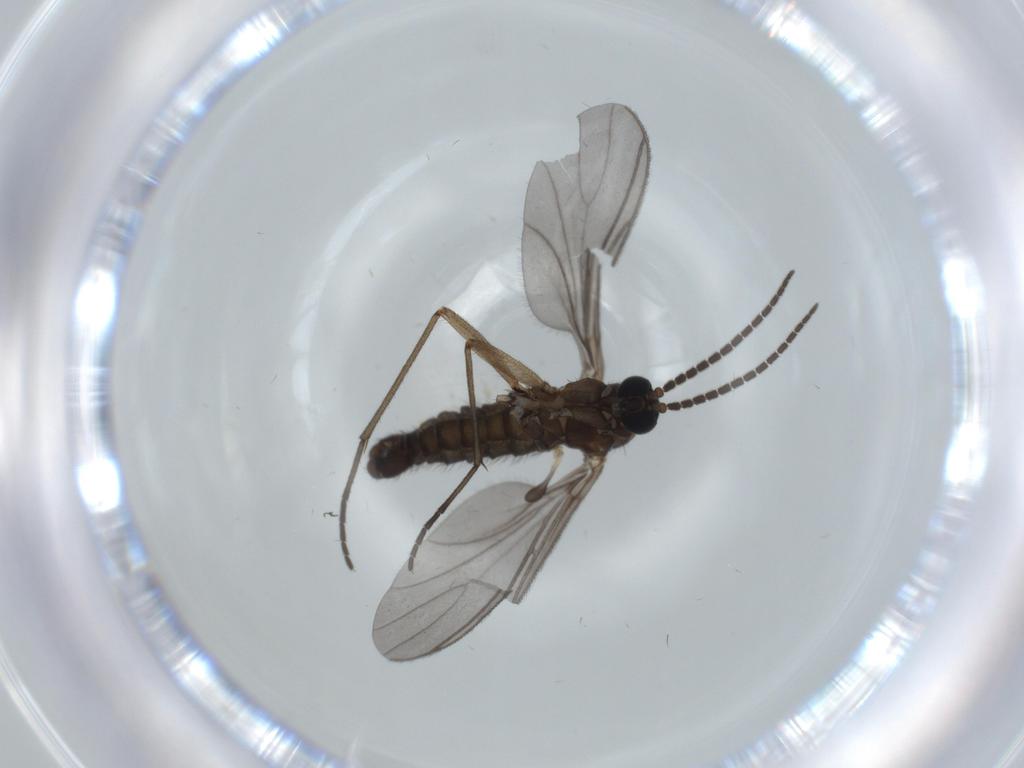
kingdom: Animalia
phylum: Arthropoda
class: Insecta
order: Diptera
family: Sciaridae
